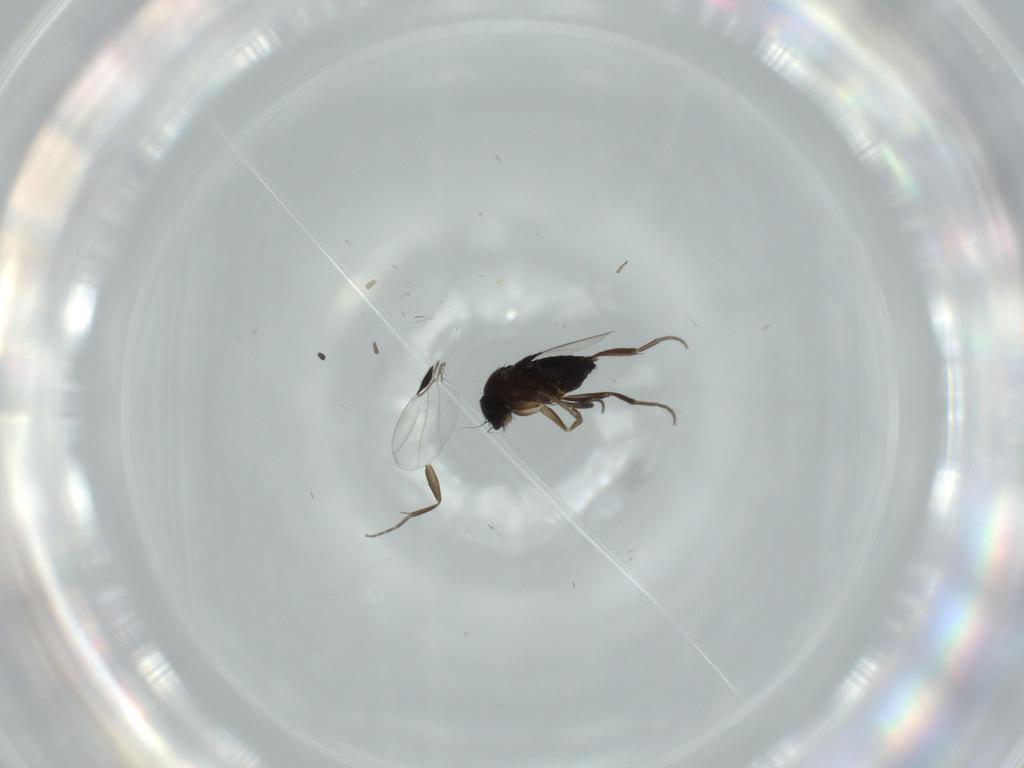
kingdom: Animalia
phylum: Arthropoda
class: Insecta
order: Diptera
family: Phoridae
